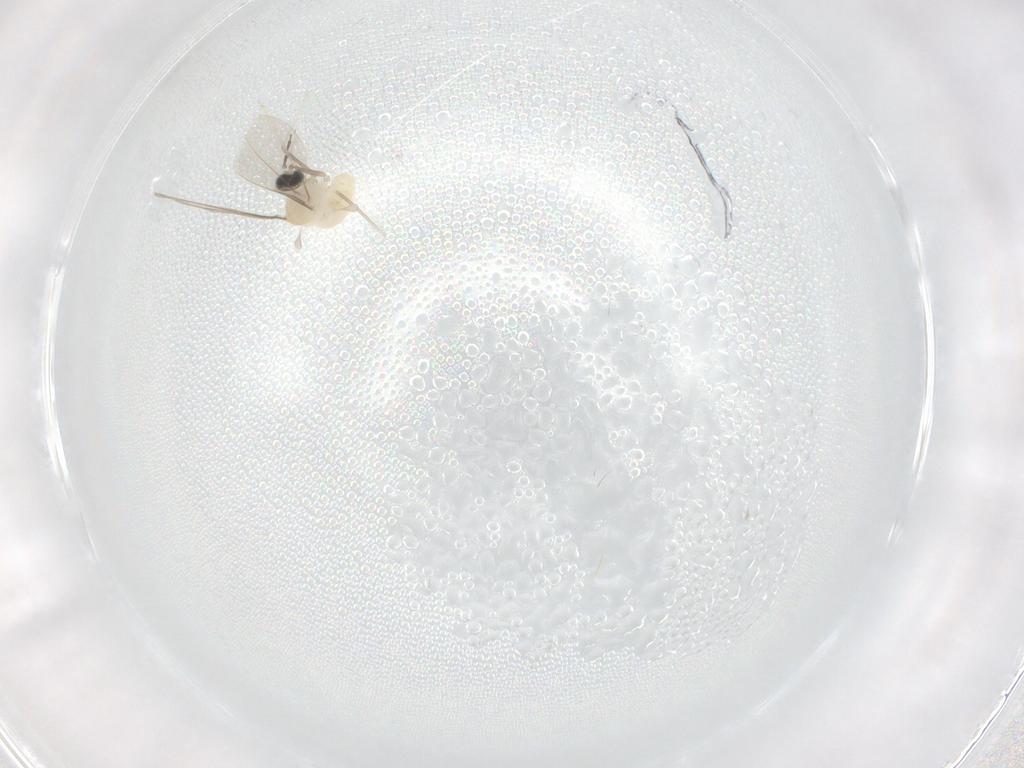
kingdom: Animalia
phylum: Arthropoda
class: Insecta
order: Diptera
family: Cecidomyiidae
